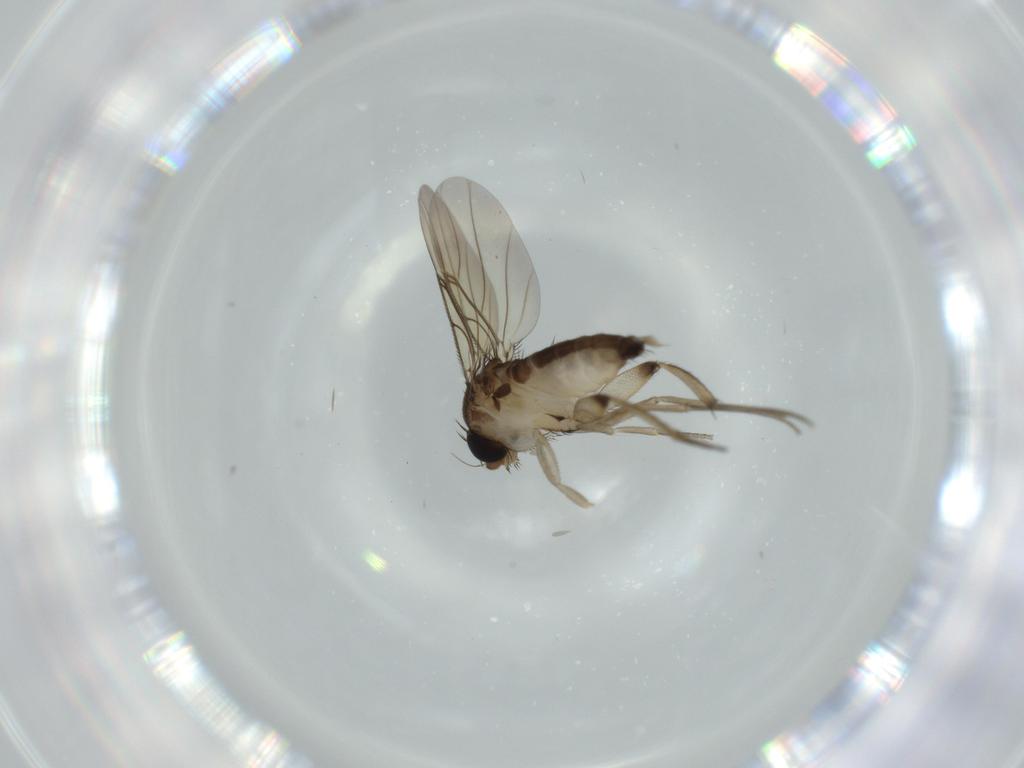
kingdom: Animalia
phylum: Arthropoda
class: Insecta
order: Diptera
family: Phoridae
